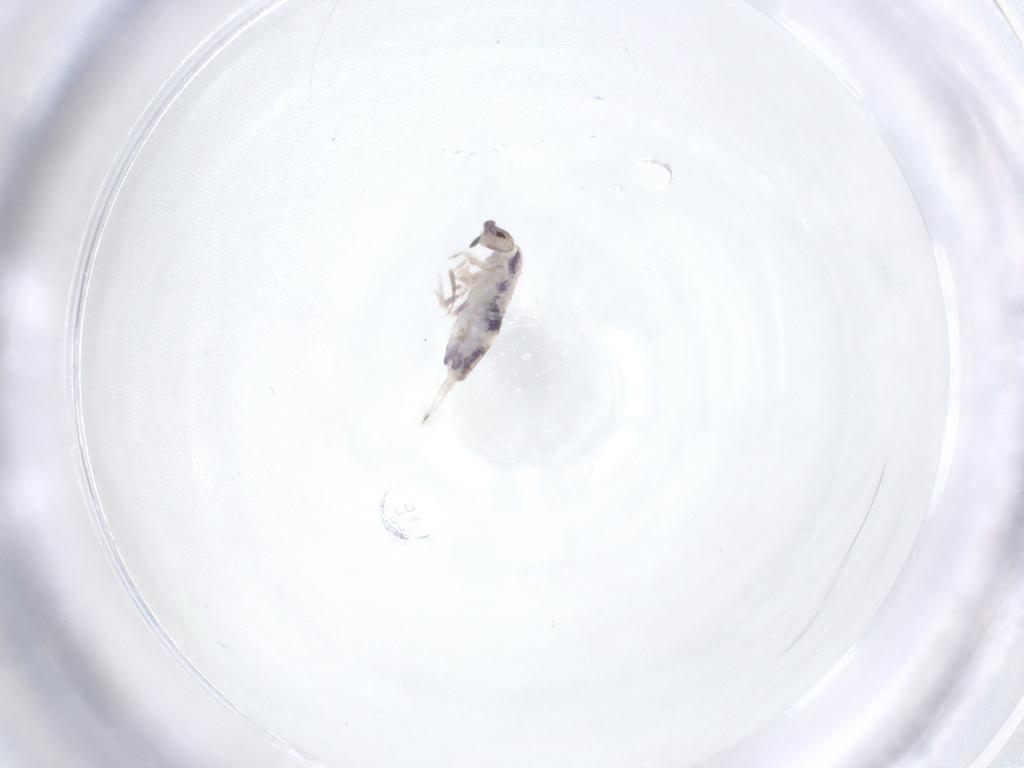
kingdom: Animalia
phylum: Arthropoda
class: Collembola
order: Entomobryomorpha
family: Entomobryidae
